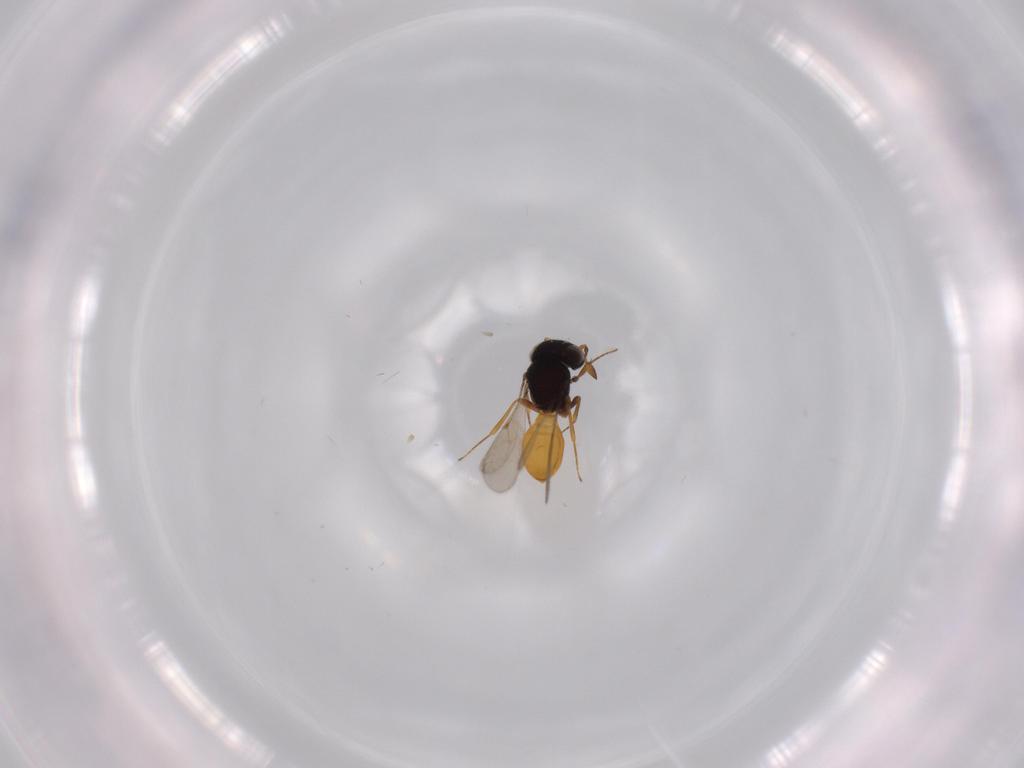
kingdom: Animalia
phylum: Arthropoda
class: Insecta
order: Hymenoptera
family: Scelionidae
